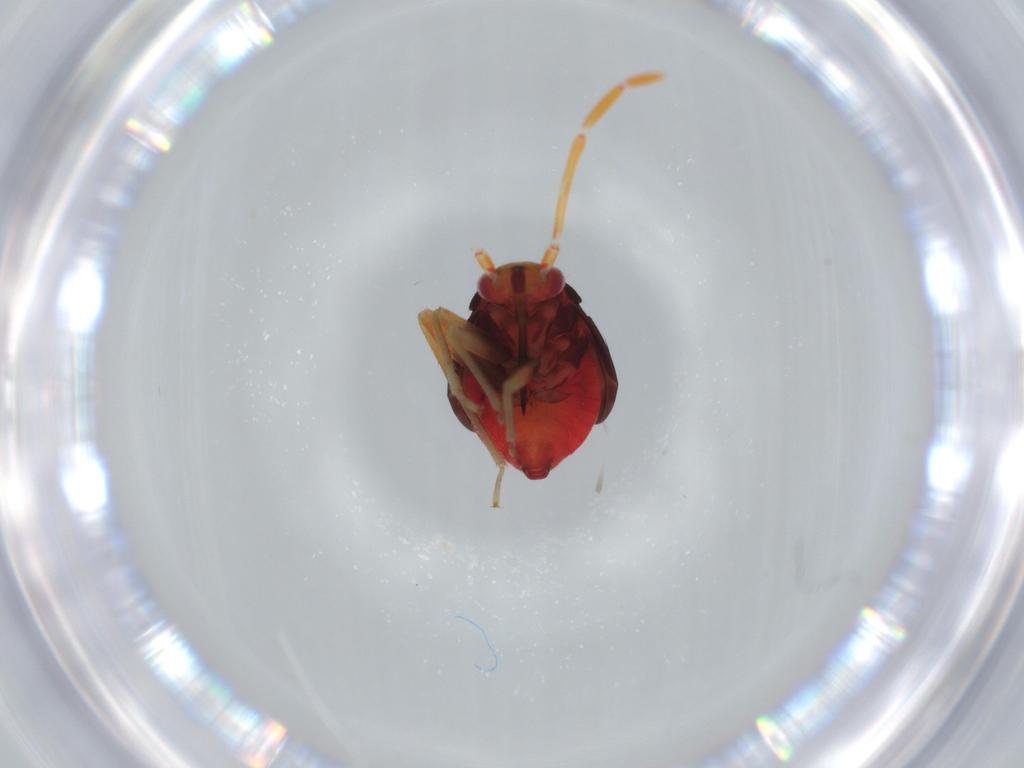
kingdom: Animalia
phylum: Arthropoda
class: Insecta
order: Hemiptera
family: Miridae
